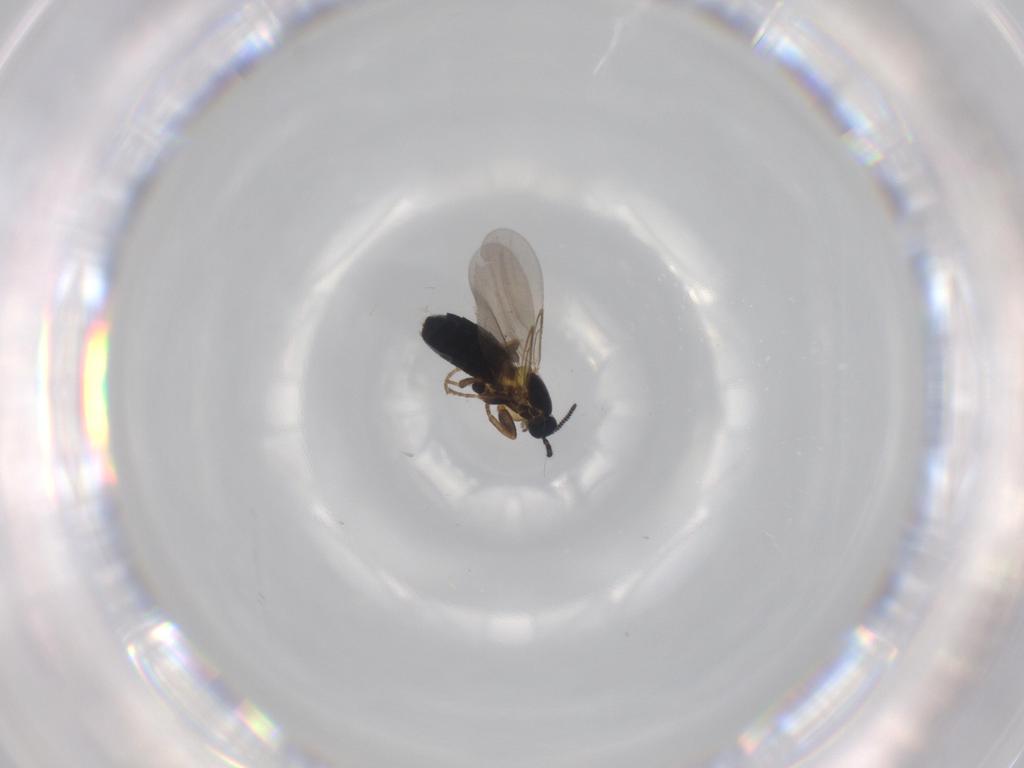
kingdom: Animalia
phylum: Arthropoda
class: Insecta
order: Diptera
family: Scatopsidae
